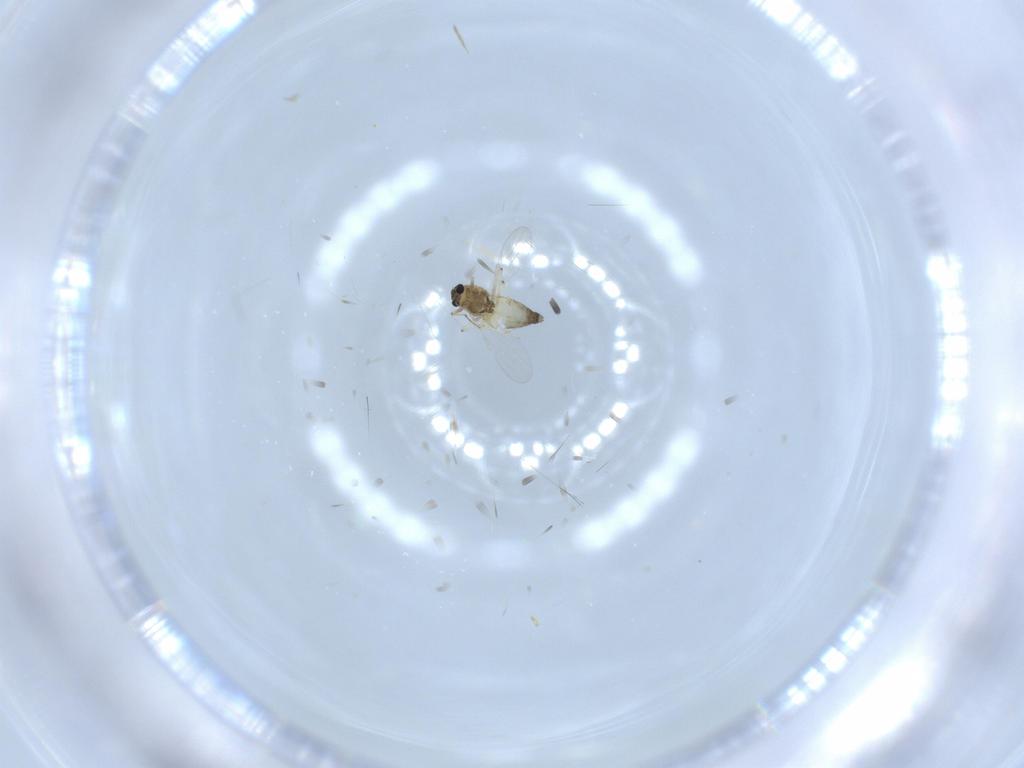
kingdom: Animalia
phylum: Arthropoda
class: Insecta
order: Diptera
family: Chironomidae
